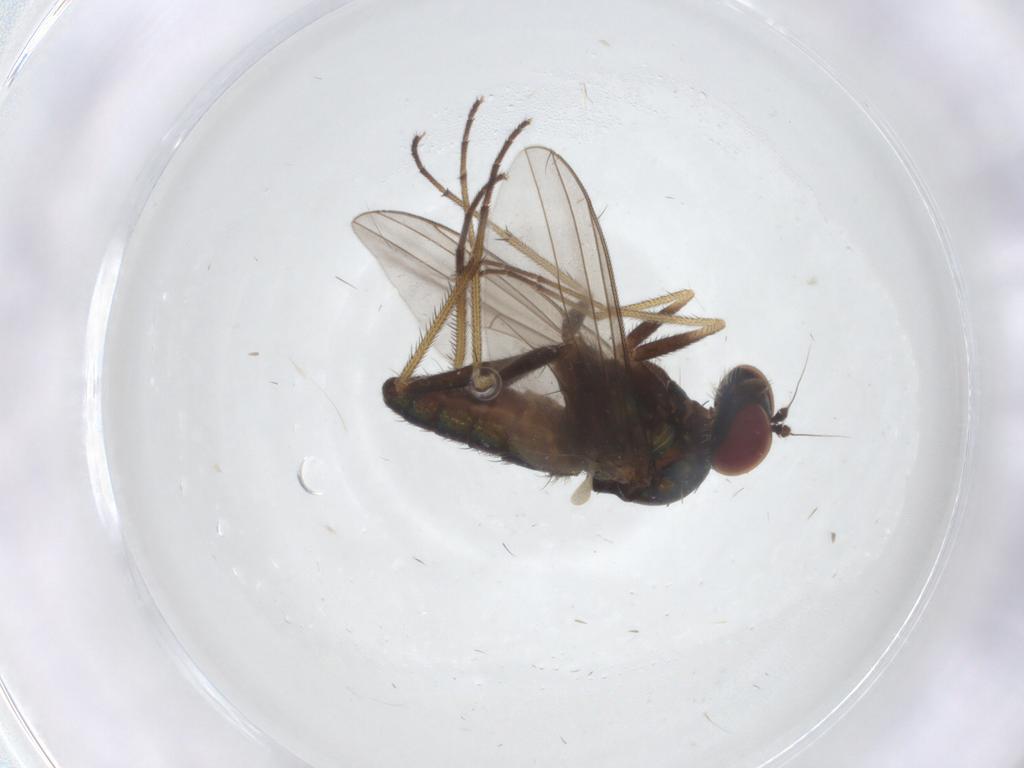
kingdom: Animalia
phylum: Arthropoda
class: Insecta
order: Diptera
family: Dolichopodidae
